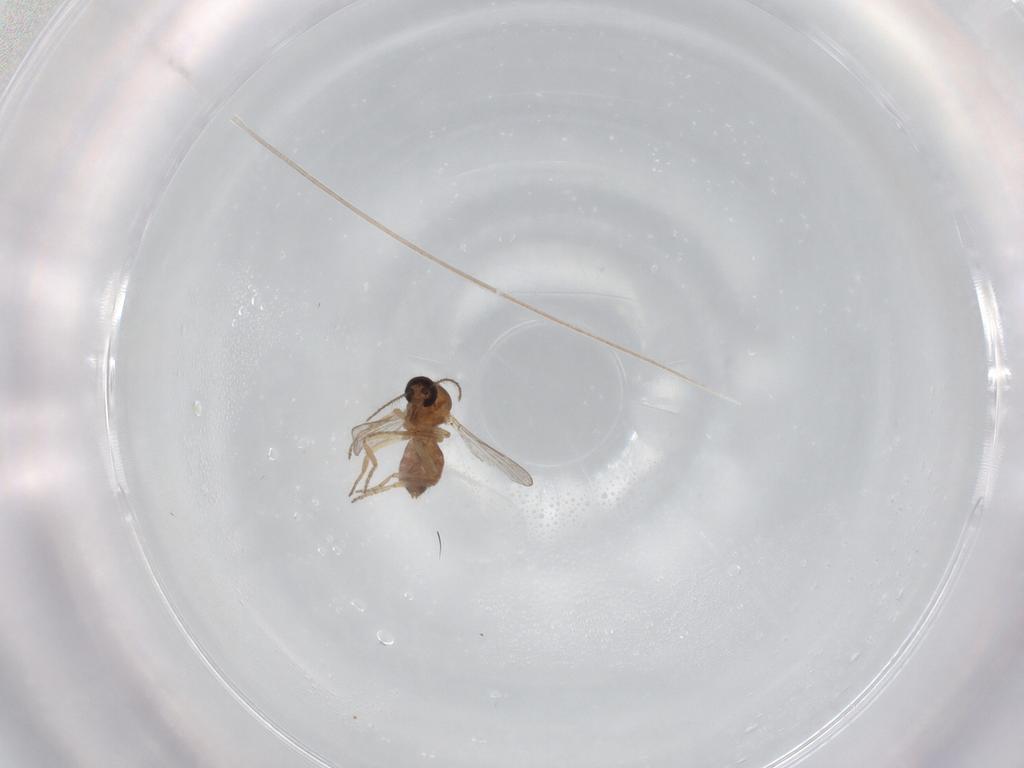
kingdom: Animalia
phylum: Arthropoda
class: Insecta
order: Diptera
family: Ceratopogonidae
